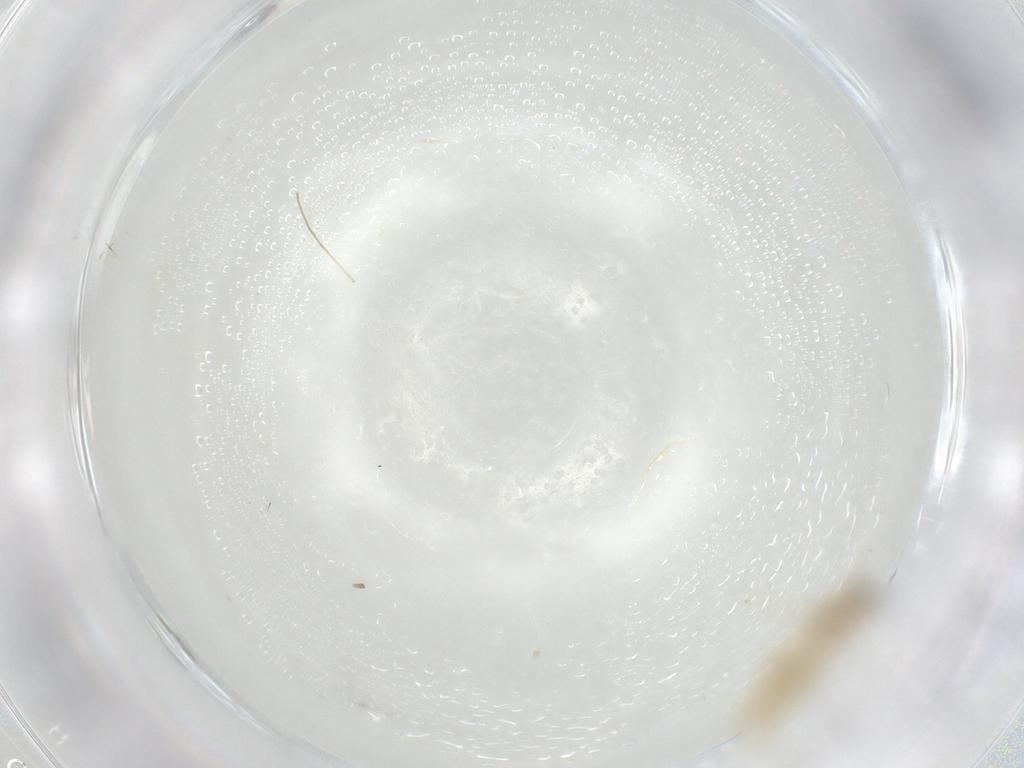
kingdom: Animalia
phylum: Arthropoda
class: Insecta
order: Diptera
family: Chironomidae
